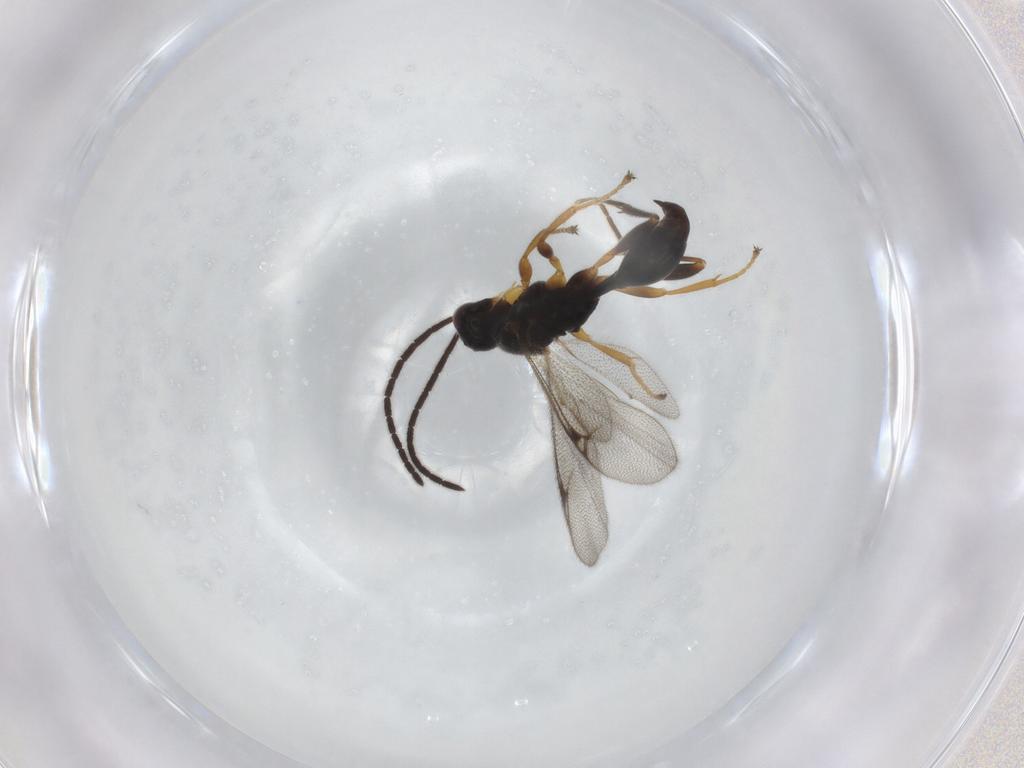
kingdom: Animalia
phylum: Arthropoda
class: Insecta
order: Hymenoptera
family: Proctotrupidae
